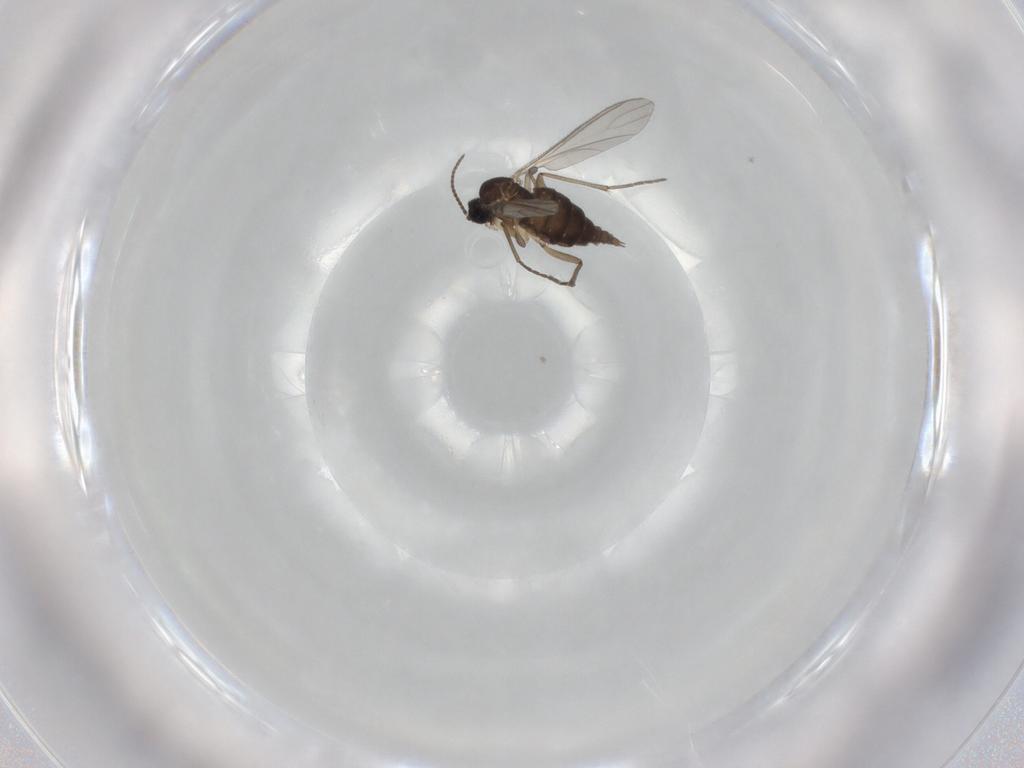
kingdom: Animalia
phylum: Arthropoda
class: Insecta
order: Diptera
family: Sciaridae
